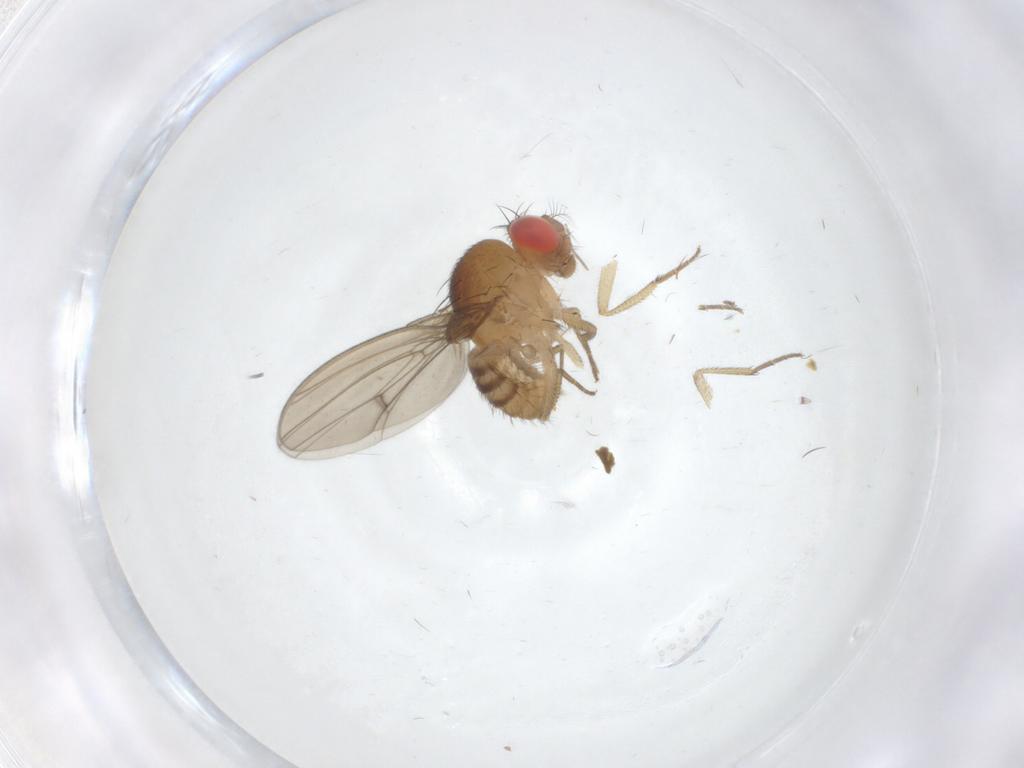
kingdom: Animalia
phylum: Arthropoda
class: Insecta
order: Diptera
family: Drosophilidae
